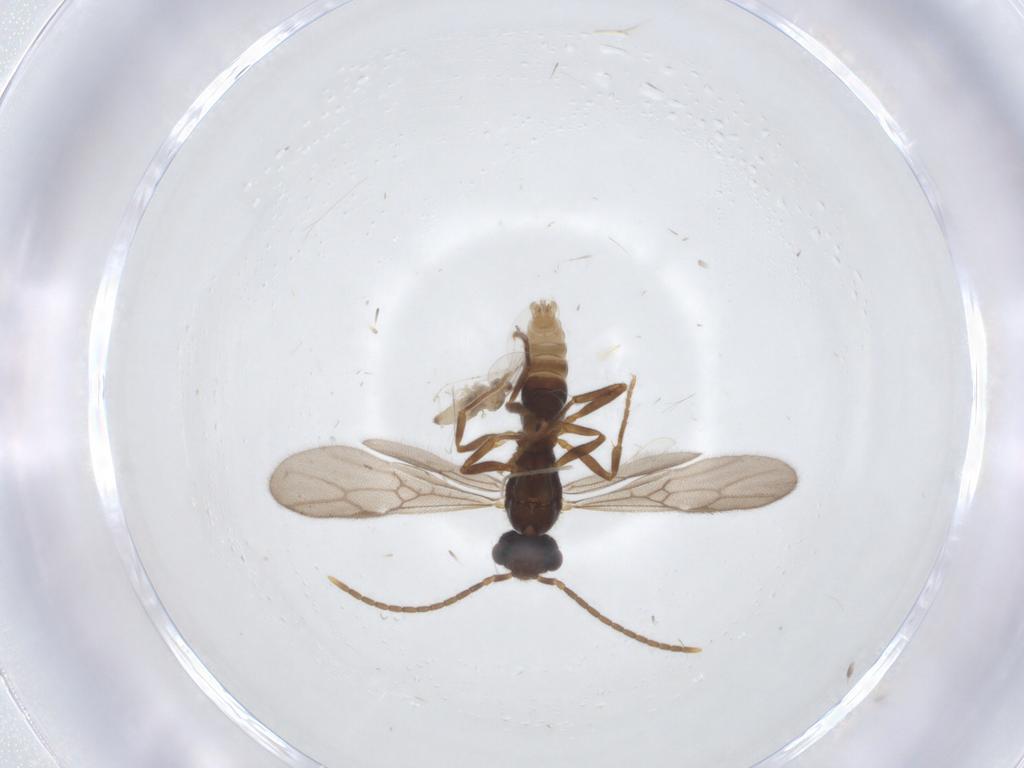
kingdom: Animalia
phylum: Arthropoda
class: Insecta
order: Hymenoptera
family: Formicidae
